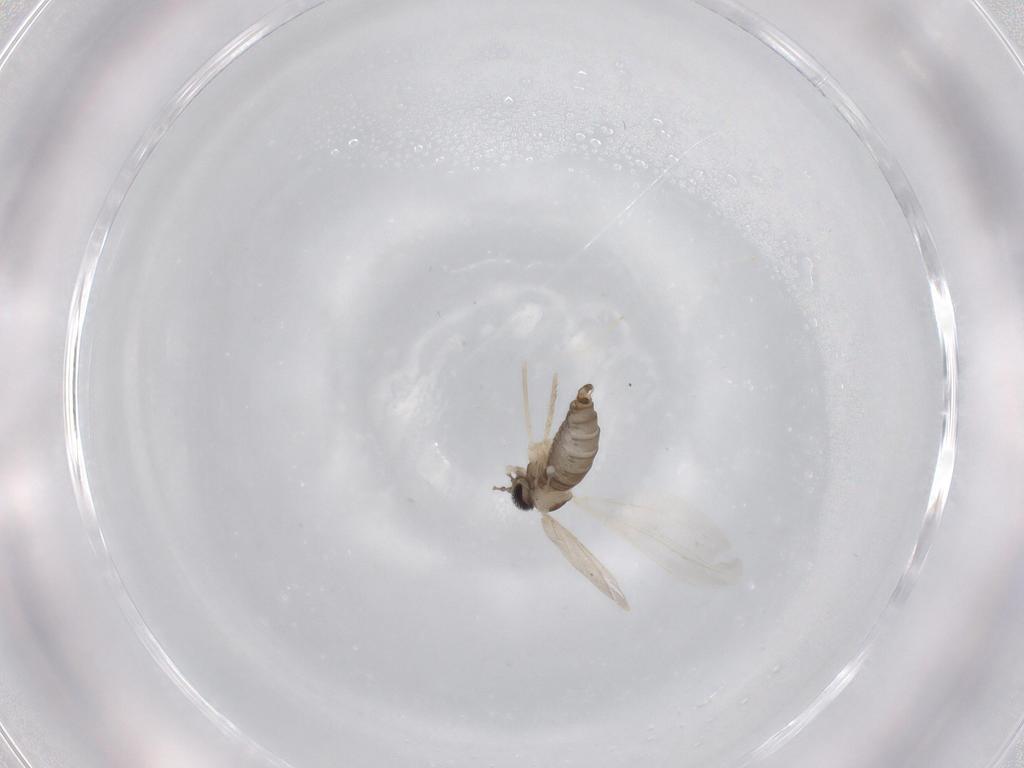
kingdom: Animalia
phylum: Arthropoda
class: Insecta
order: Diptera
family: Cecidomyiidae
